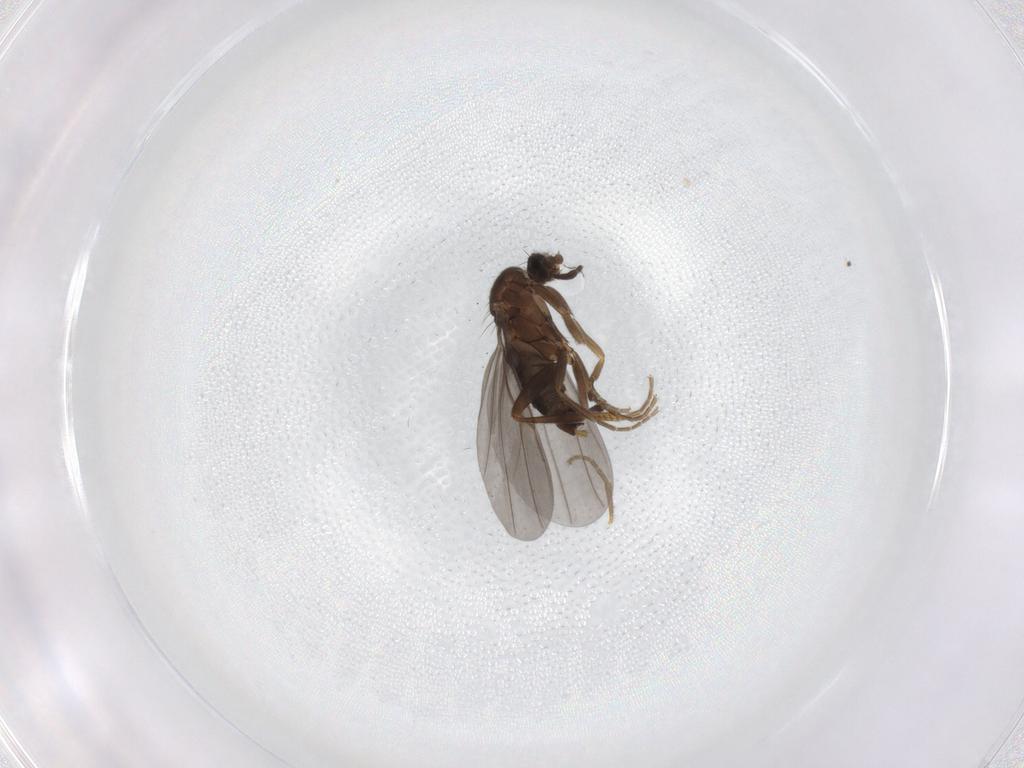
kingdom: Animalia
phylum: Arthropoda
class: Insecta
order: Diptera
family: Phoridae
